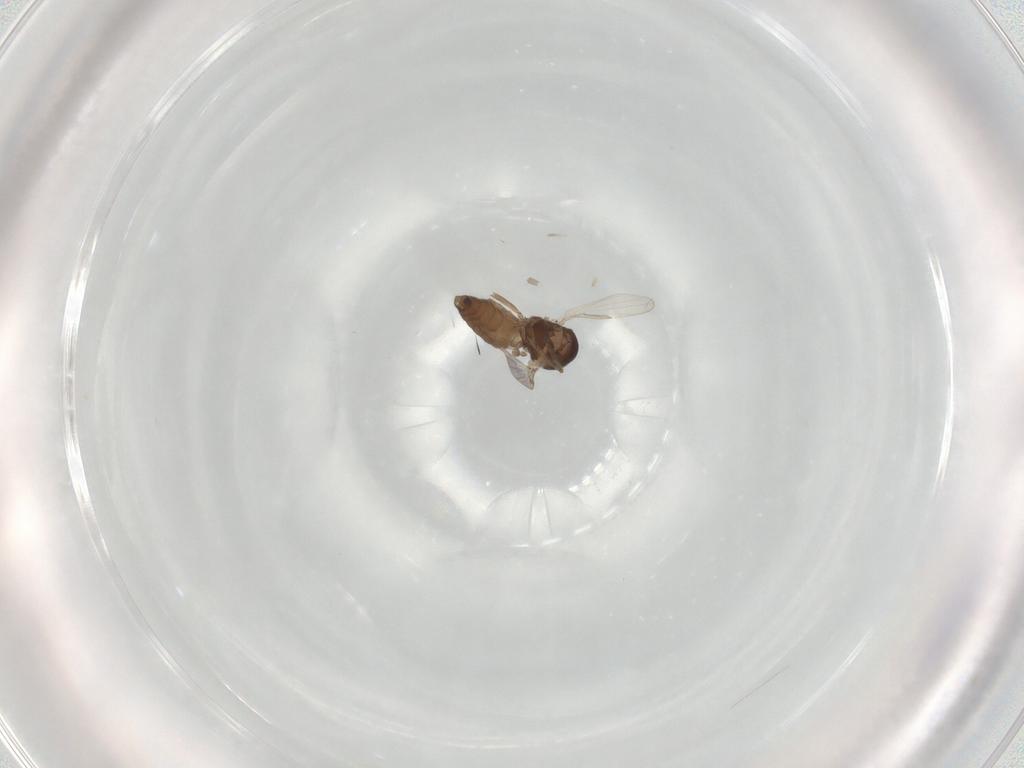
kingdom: Animalia
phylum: Arthropoda
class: Insecta
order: Diptera
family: Ceratopogonidae
